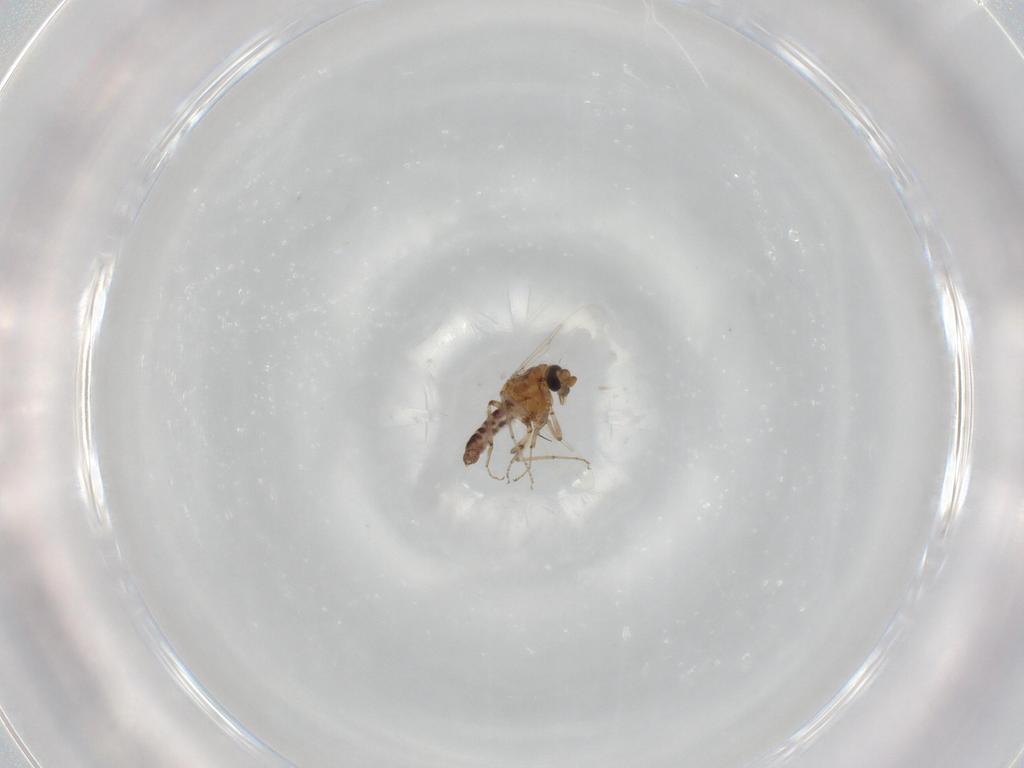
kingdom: Animalia
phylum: Arthropoda
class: Insecta
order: Diptera
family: Ceratopogonidae
